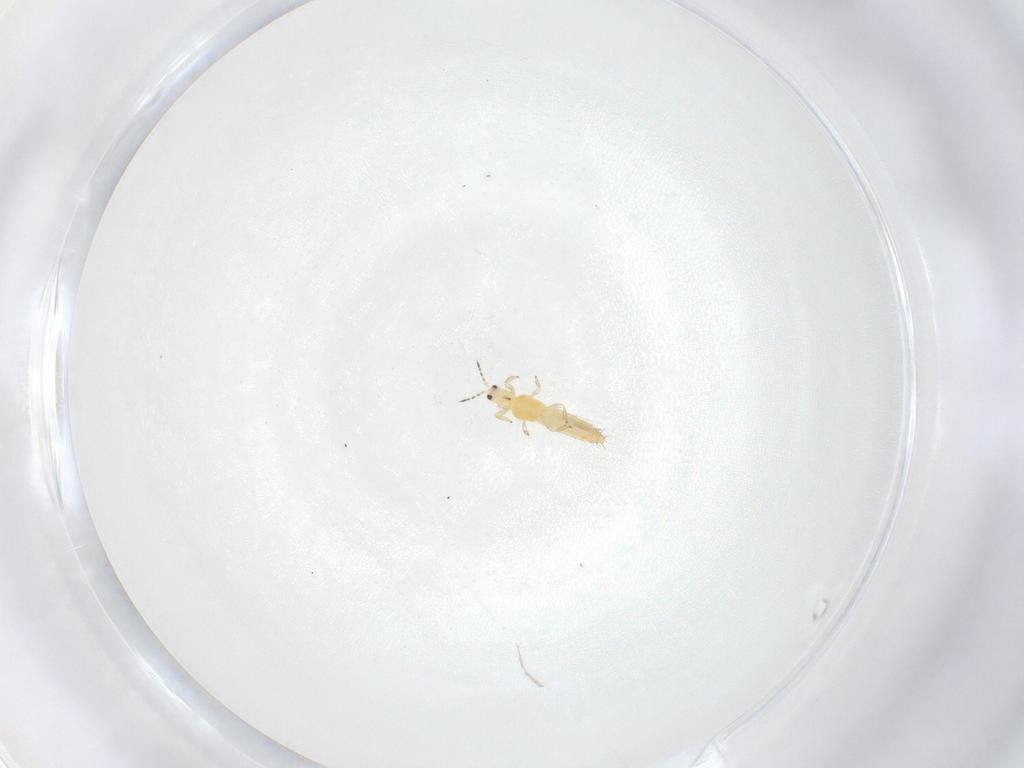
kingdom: Animalia
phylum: Arthropoda
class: Insecta
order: Thysanoptera
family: Thripidae
